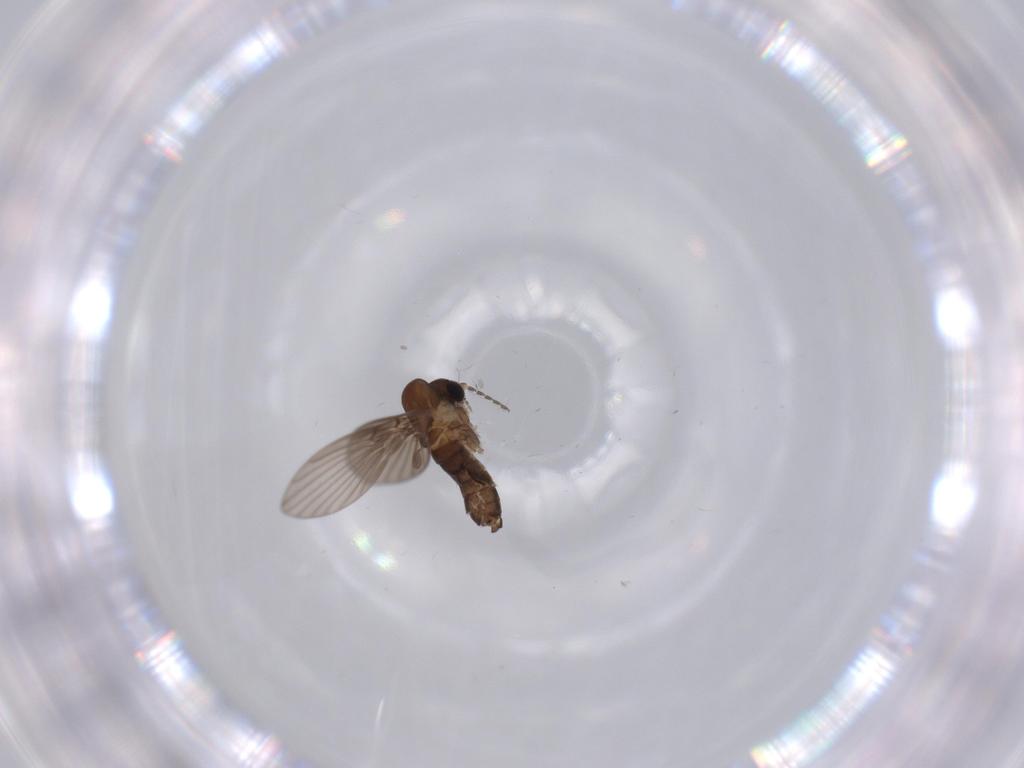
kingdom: Animalia
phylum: Arthropoda
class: Insecta
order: Diptera
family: Psychodidae
